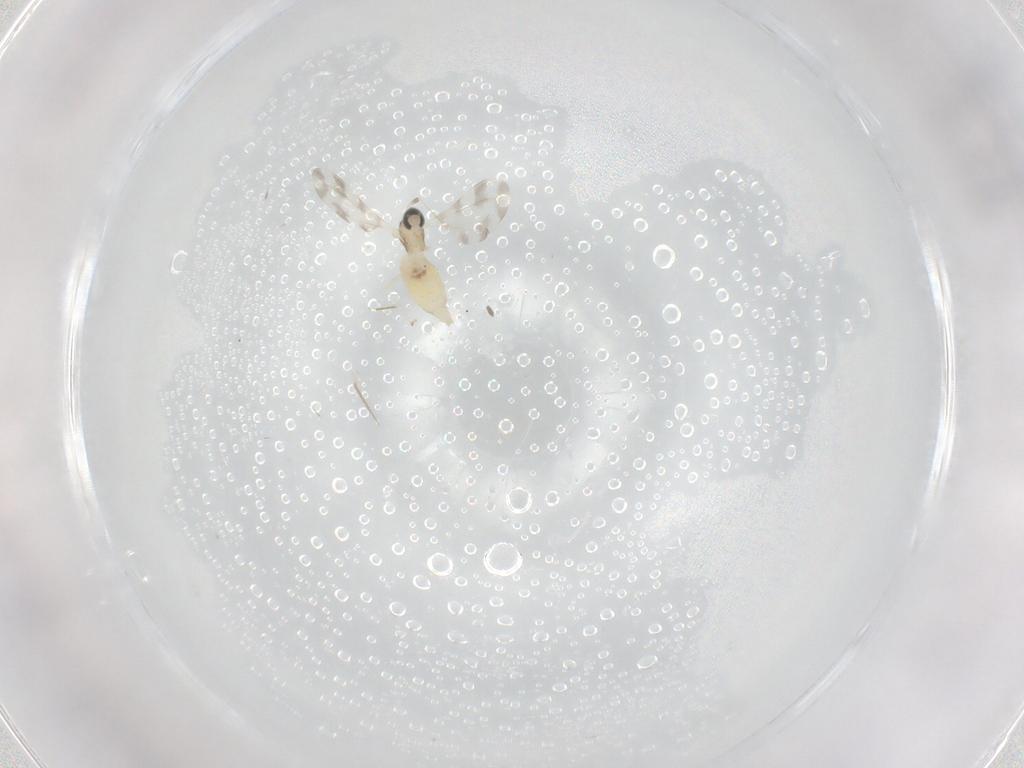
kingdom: Animalia
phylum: Arthropoda
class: Insecta
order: Diptera
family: Cecidomyiidae
